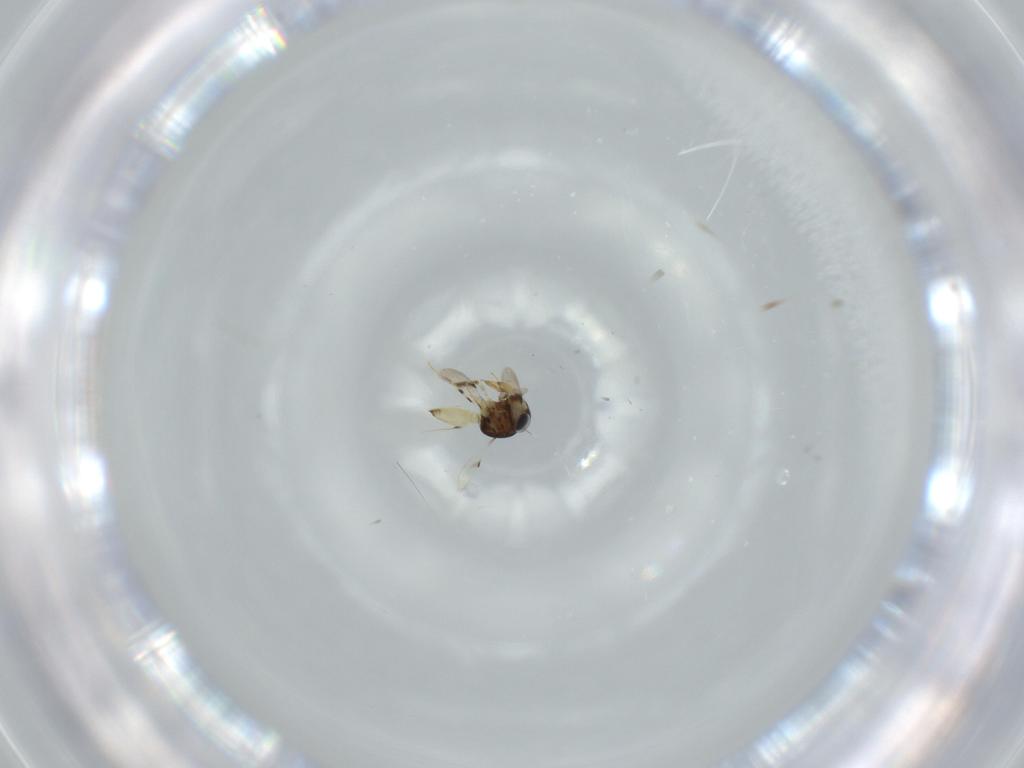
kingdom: Animalia
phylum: Arthropoda
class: Insecta
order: Hymenoptera
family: Scelionidae
